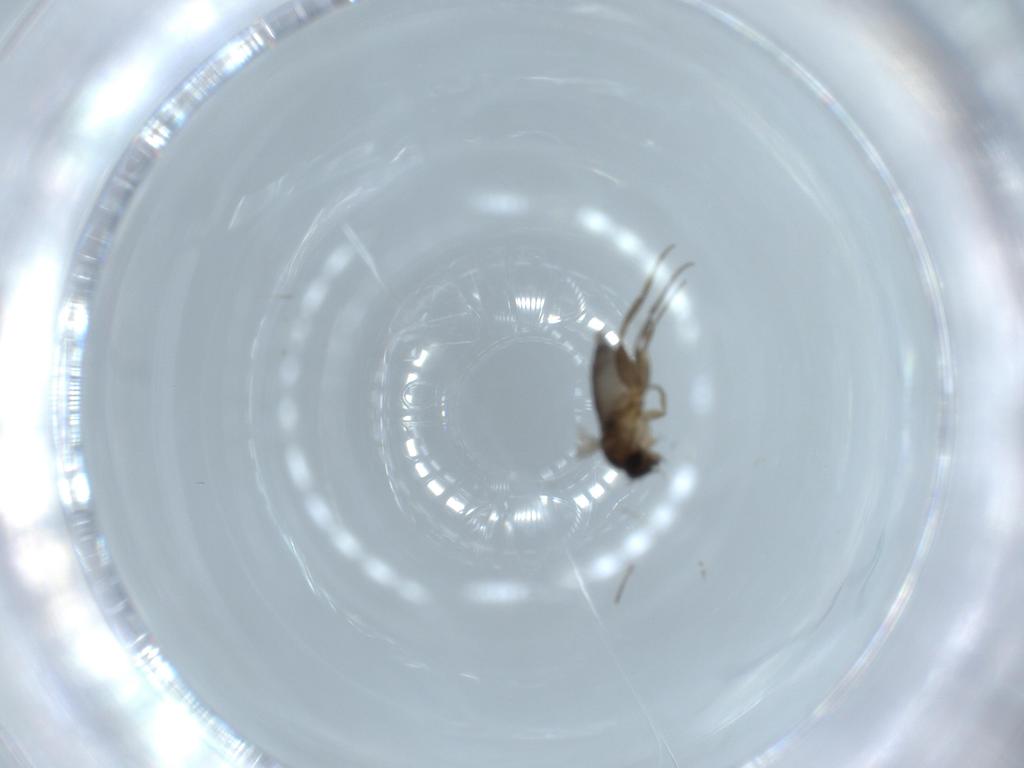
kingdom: Animalia
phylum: Arthropoda
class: Insecta
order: Diptera
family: Phoridae
